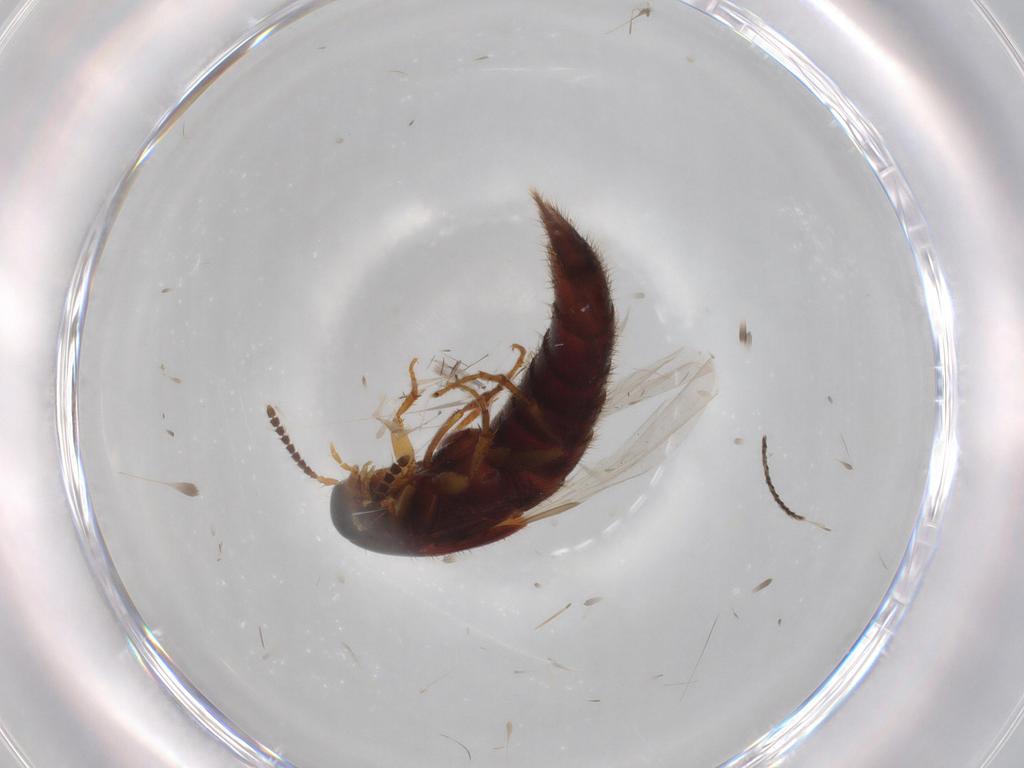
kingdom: Animalia
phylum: Arthropoda
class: Insecta
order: Coleoptera
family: Staphylinidae
